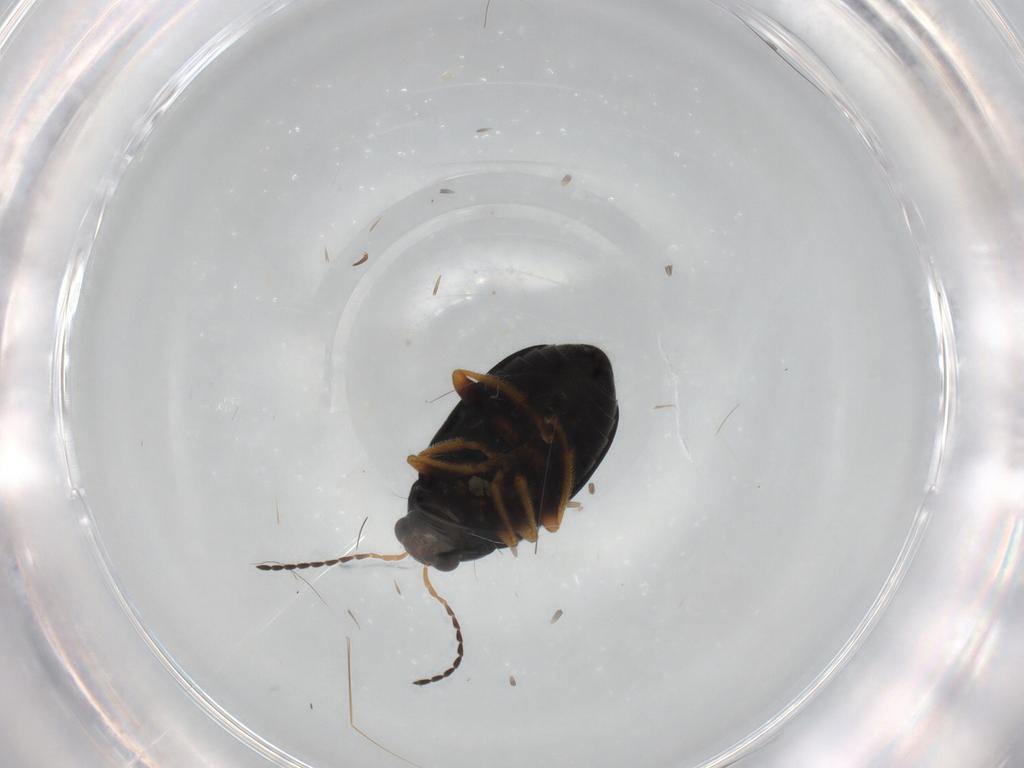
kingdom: Animalia
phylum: Arthropoda
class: Insecta
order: Coleoptera
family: Chrysomelidae
